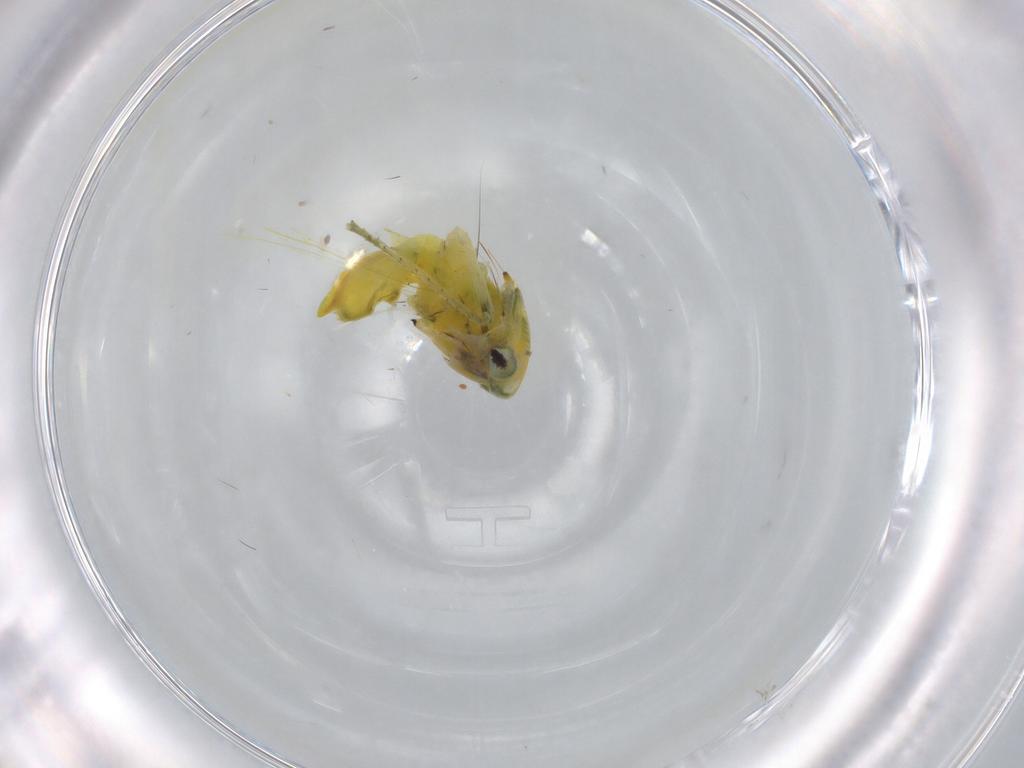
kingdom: Animalia
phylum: Arthropoda
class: Insecta
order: Hemiptera
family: Cicadellidae
